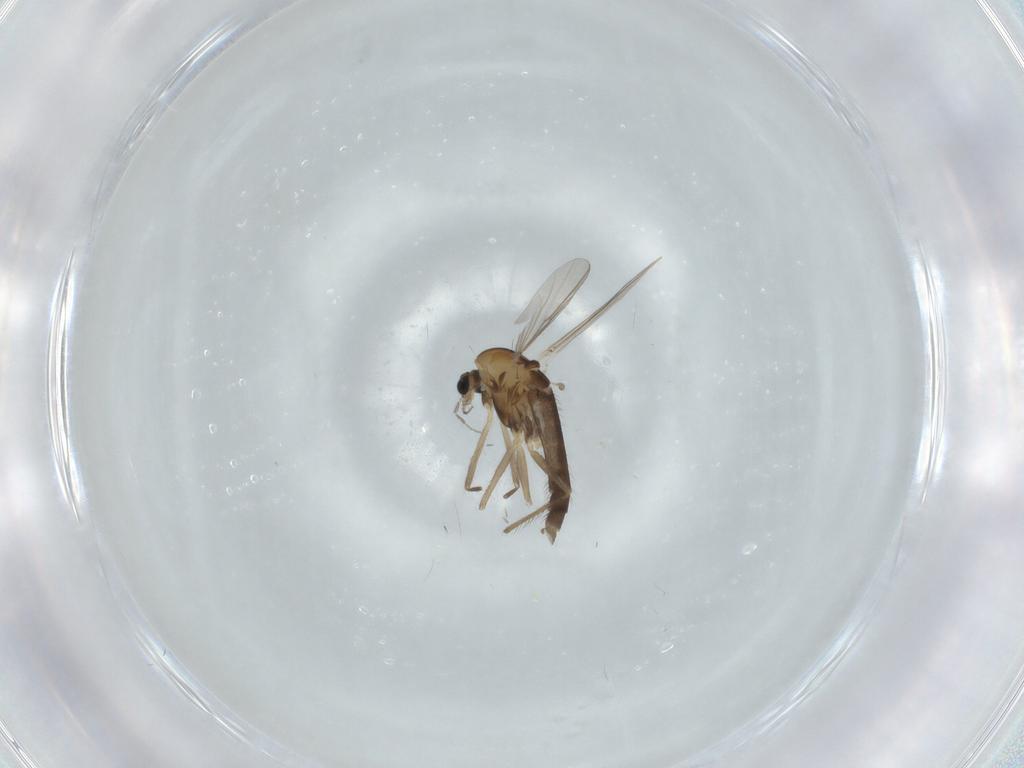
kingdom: Animalia
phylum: Arthropoda
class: Insecta
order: Diptera
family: Chironomidae
